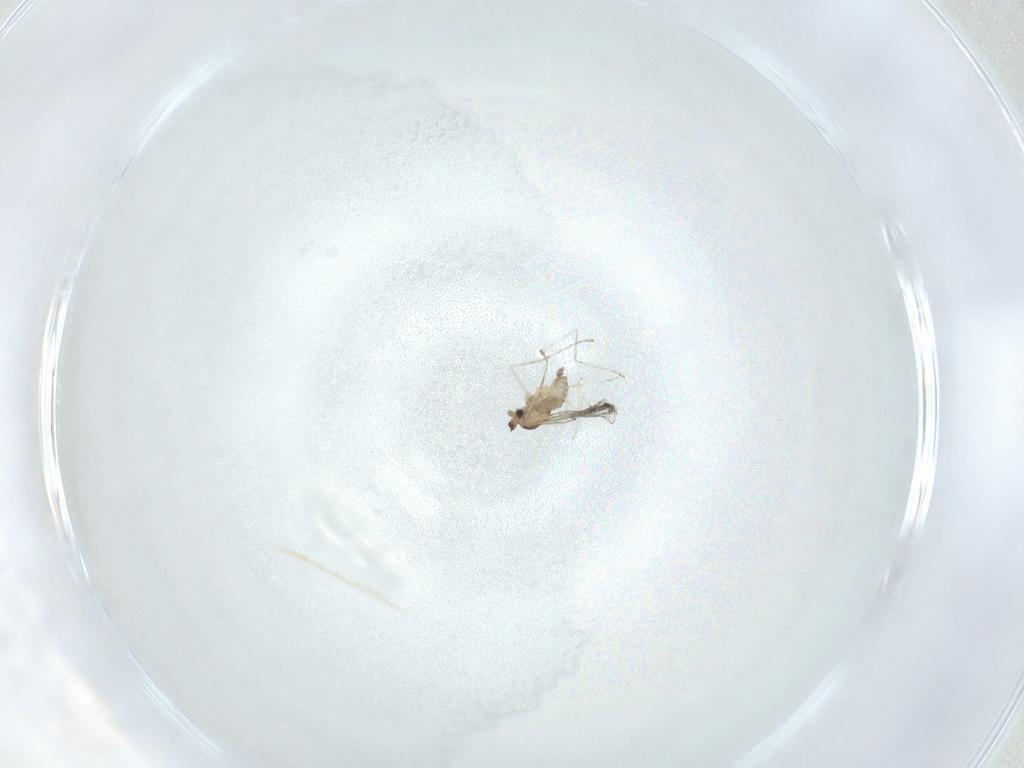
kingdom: Animalia
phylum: Arthropoda
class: Insecta
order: Diptera
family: Cecidomyiidae
